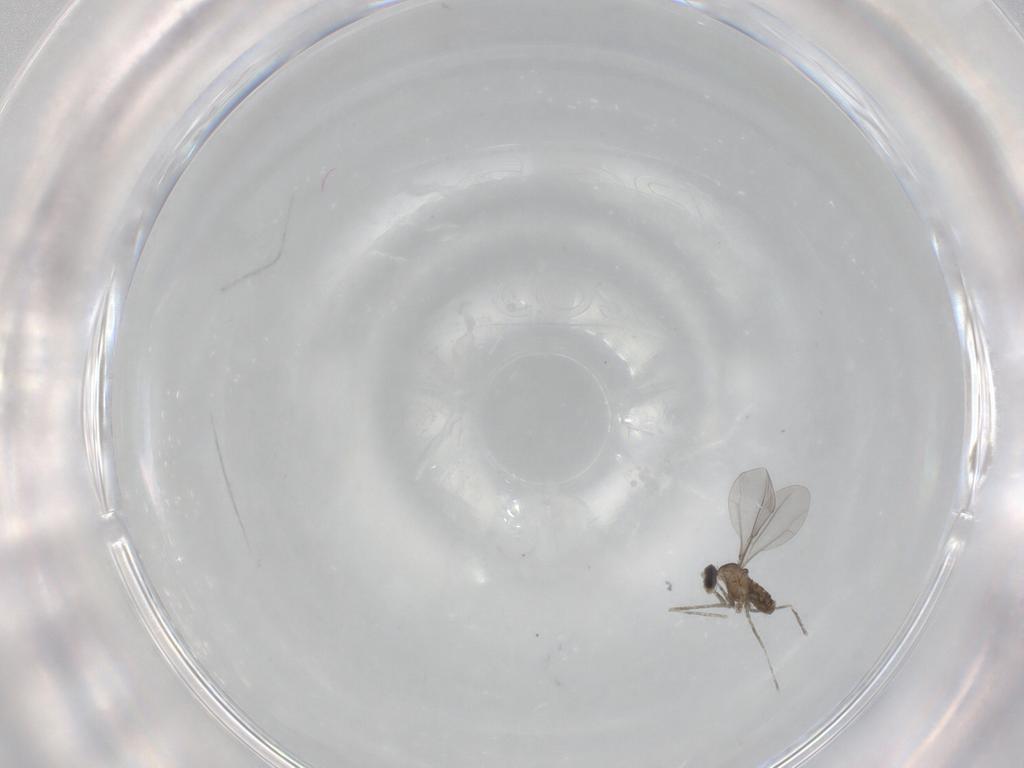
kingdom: Animalia
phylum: Arthropoda
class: Insecta
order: Diptera
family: Cecidomyiidae
